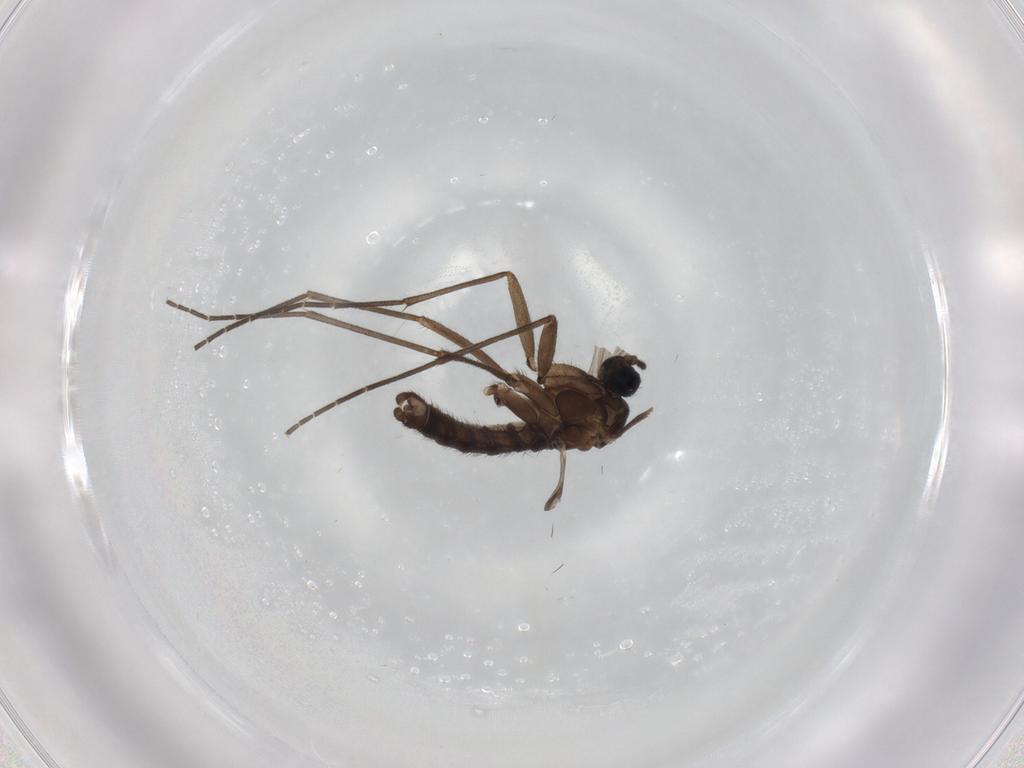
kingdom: Animalia
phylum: Arthropoda
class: Insecta
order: Diptera
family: Sciaridae
